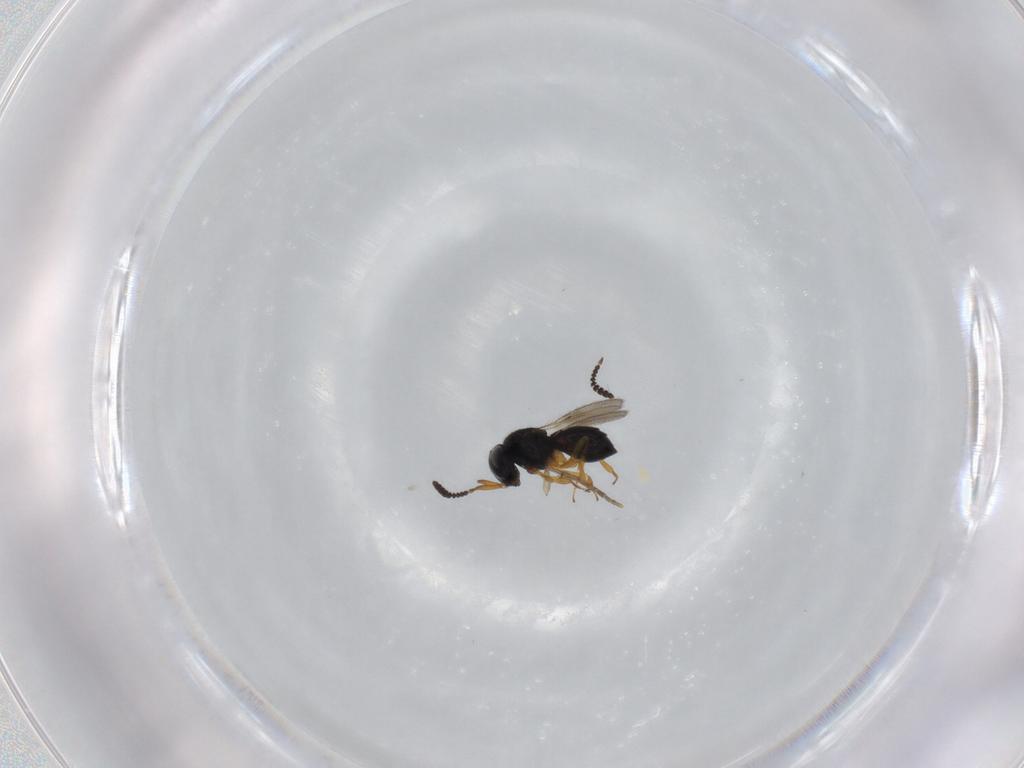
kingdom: Animalia
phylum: Arthropoda
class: Insecta
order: Hymenoptera
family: Scelionidae
